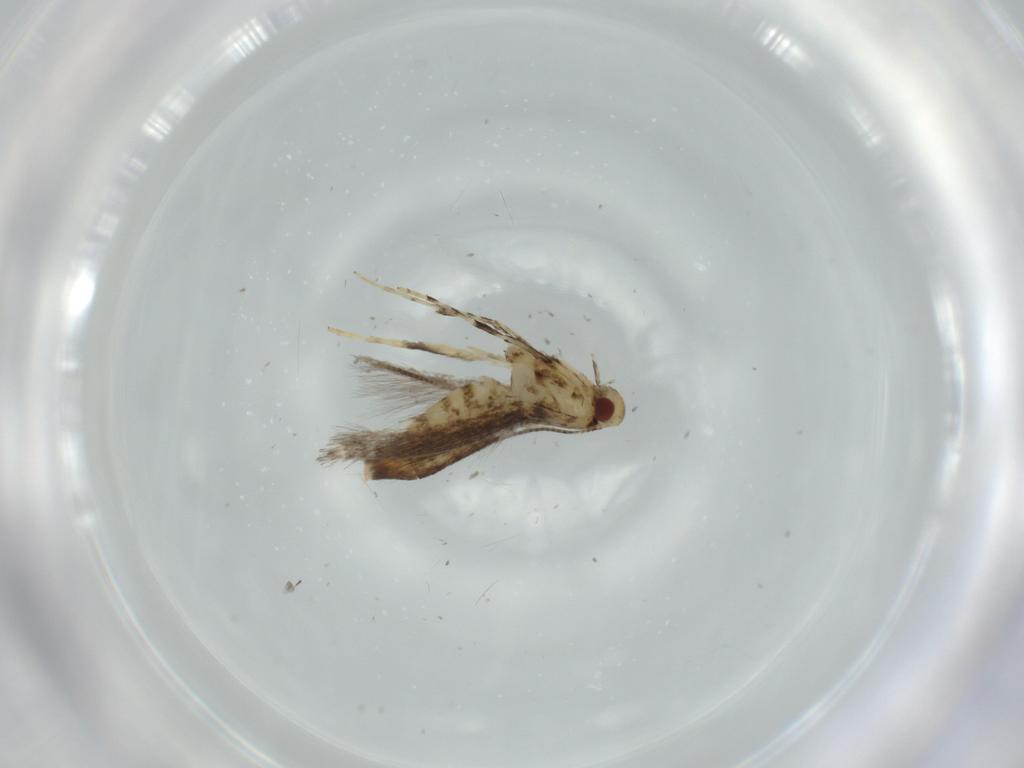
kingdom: Animalia
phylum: Arthropoda
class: Insecta
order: Lepidoptera
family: Gracillariidae
